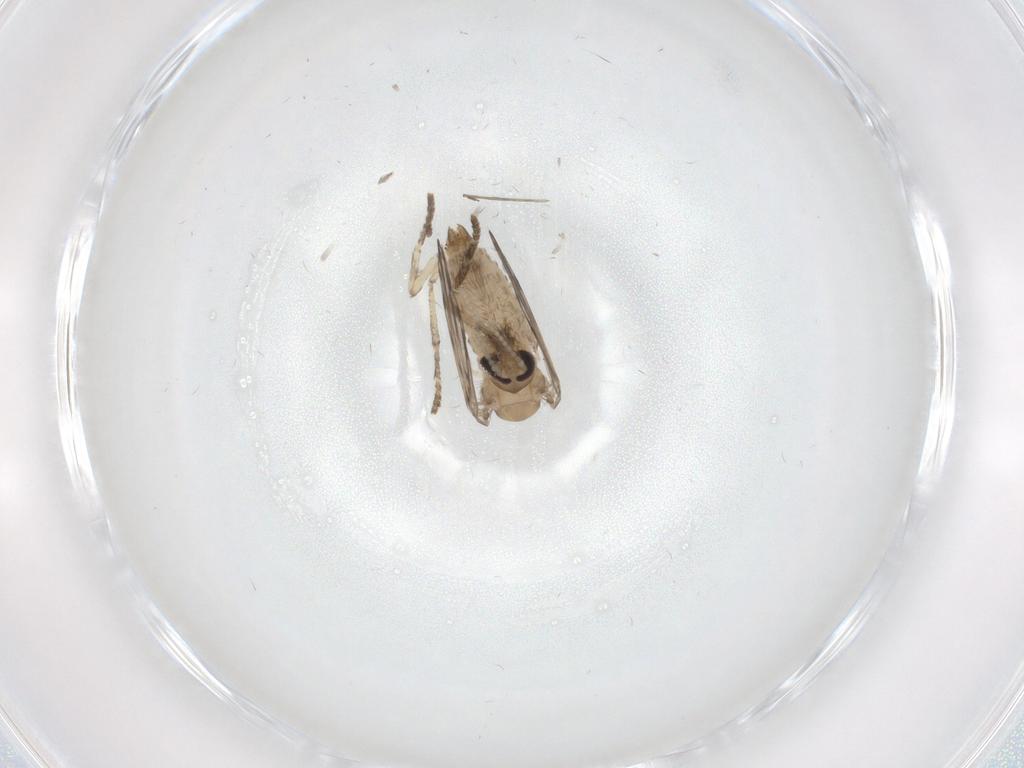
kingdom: Animalia
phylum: Arthropoda
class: Insecta
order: Diptera
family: Psychodidae
